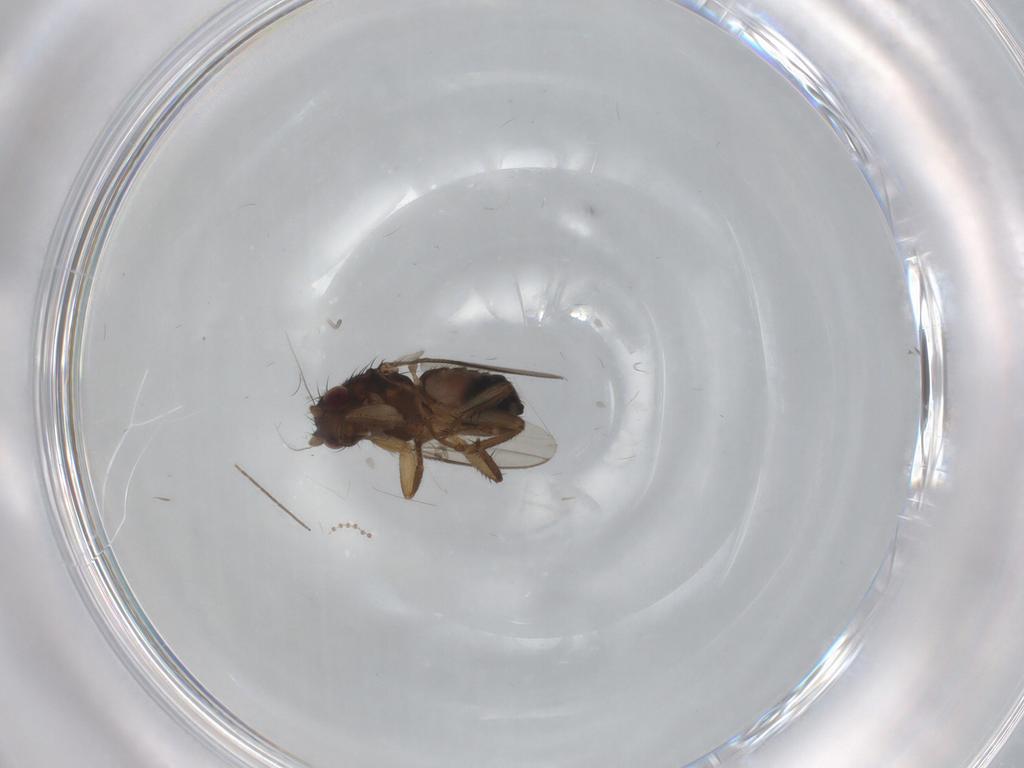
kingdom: Animalia
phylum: Arthropoda
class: Insecta
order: Diptera
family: Sphaeroceridae
